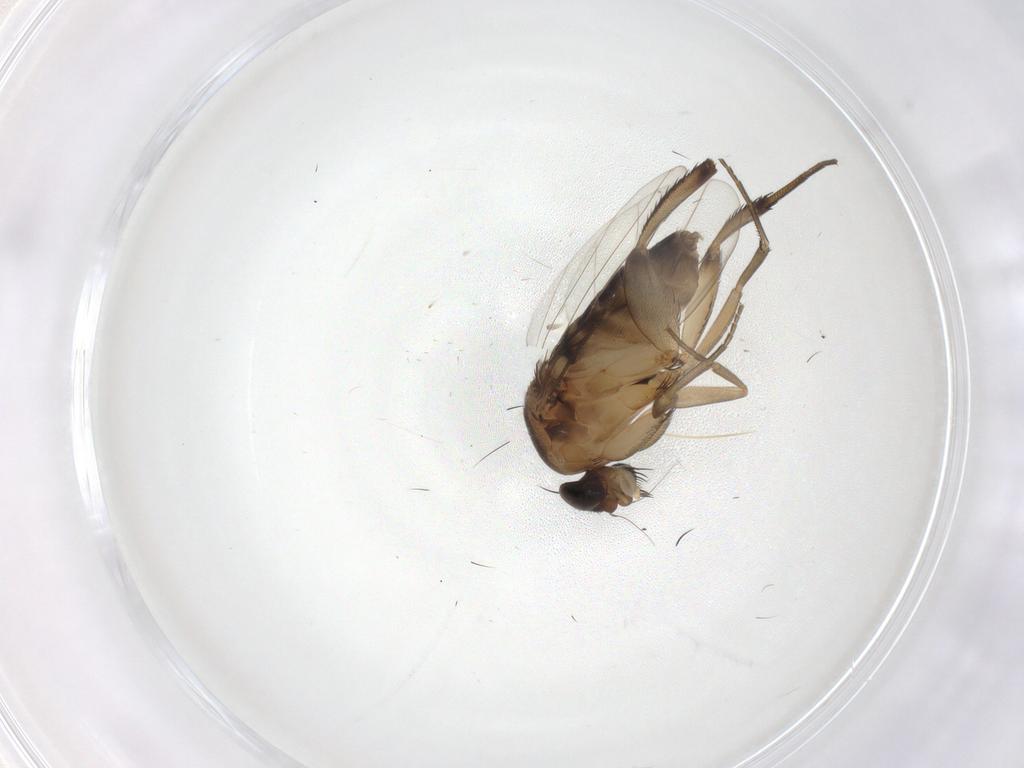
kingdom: Animalia
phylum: Arthropoda
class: Insecta
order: Diptera
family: Phoridae
